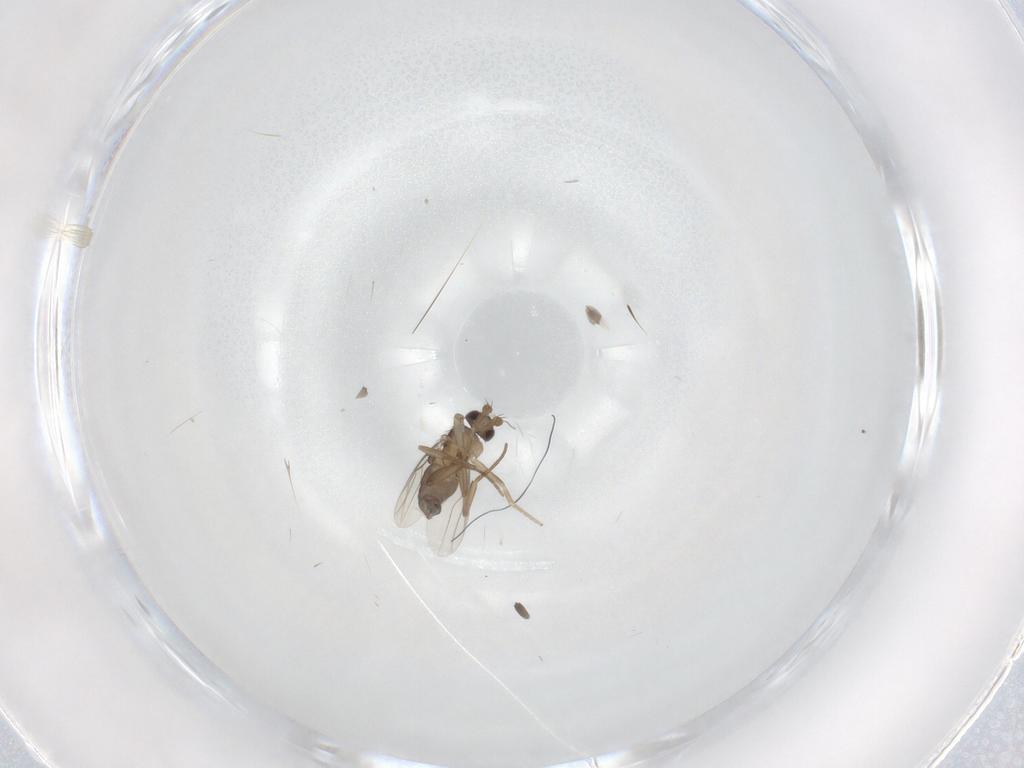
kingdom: Animalia
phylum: Arthropoda
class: Insecta
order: Diptera
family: Phoridae
